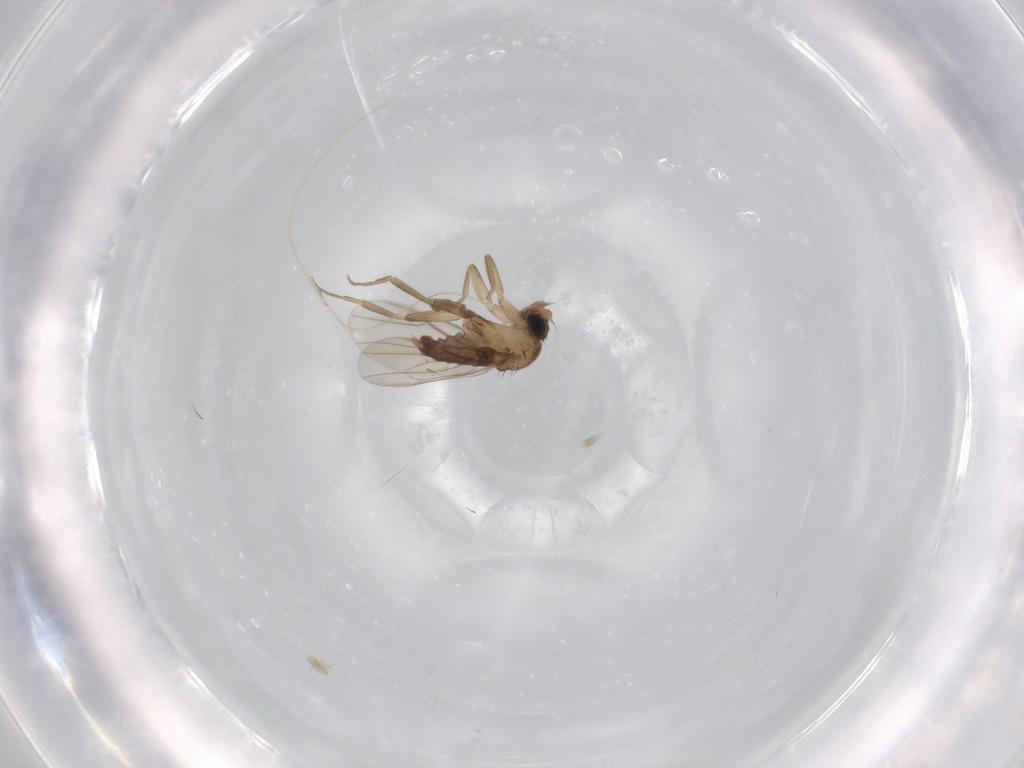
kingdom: Animalia
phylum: Arthropoda
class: Insecta
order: Diptera
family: Phoridae
